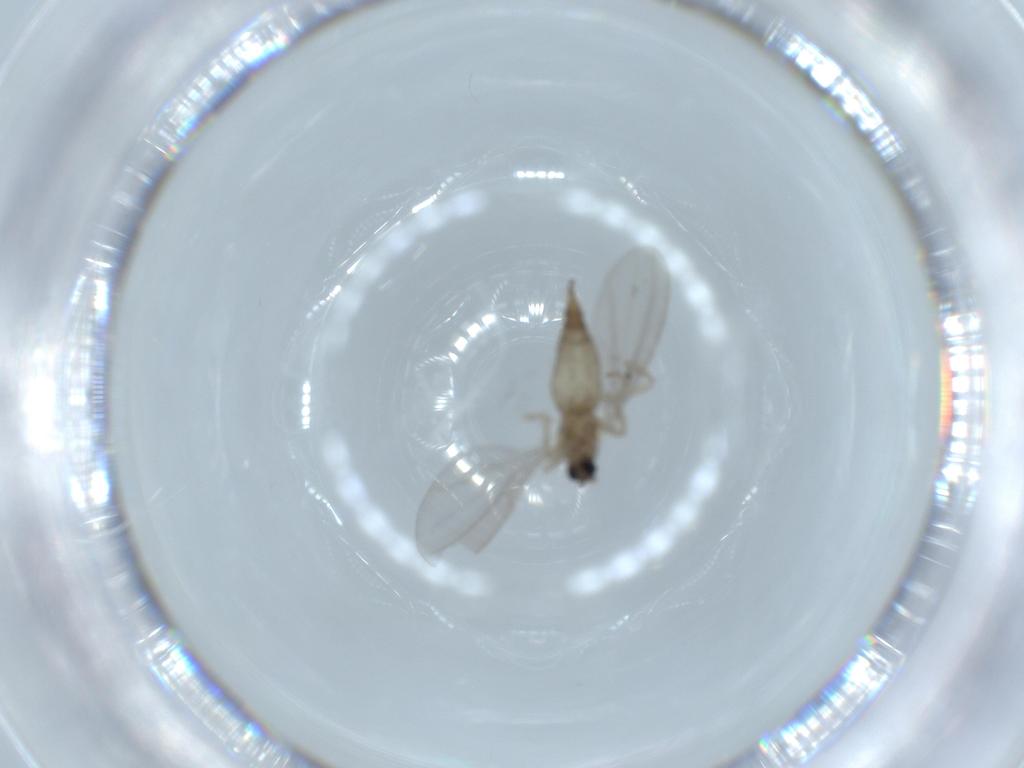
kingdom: Animalia
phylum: Arthropoda
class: Insecta
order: Diptera
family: Cecidomyiidae
